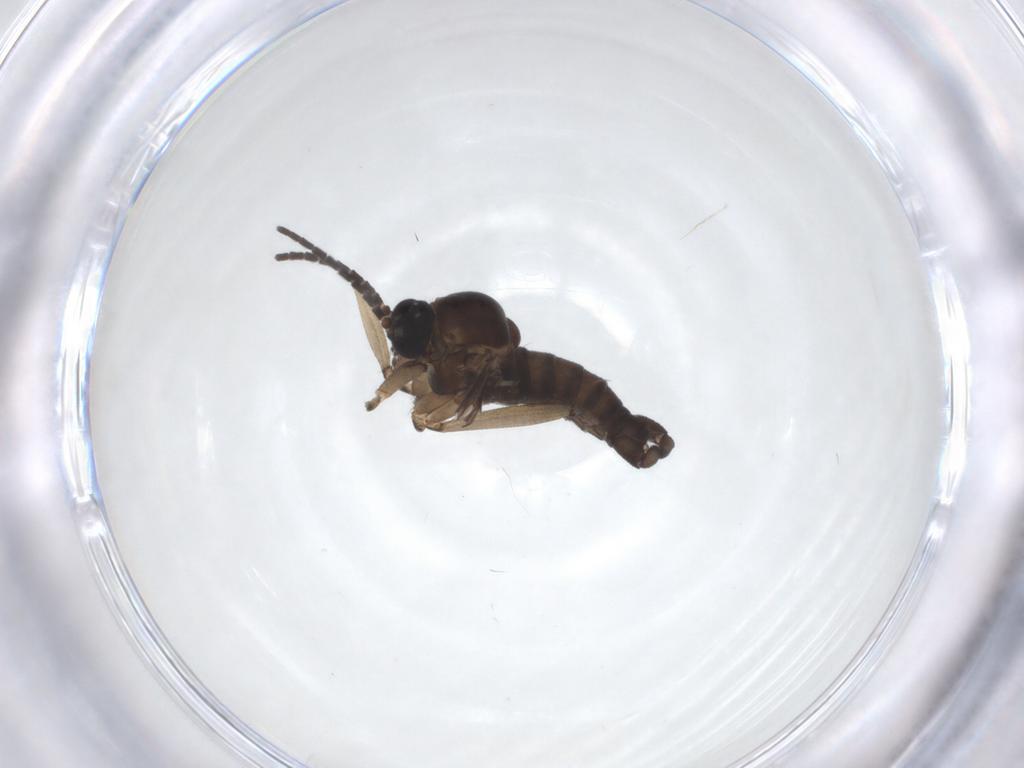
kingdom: Animalia
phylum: Arthropoda
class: Insecta
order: Diptera
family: Sciaridae
